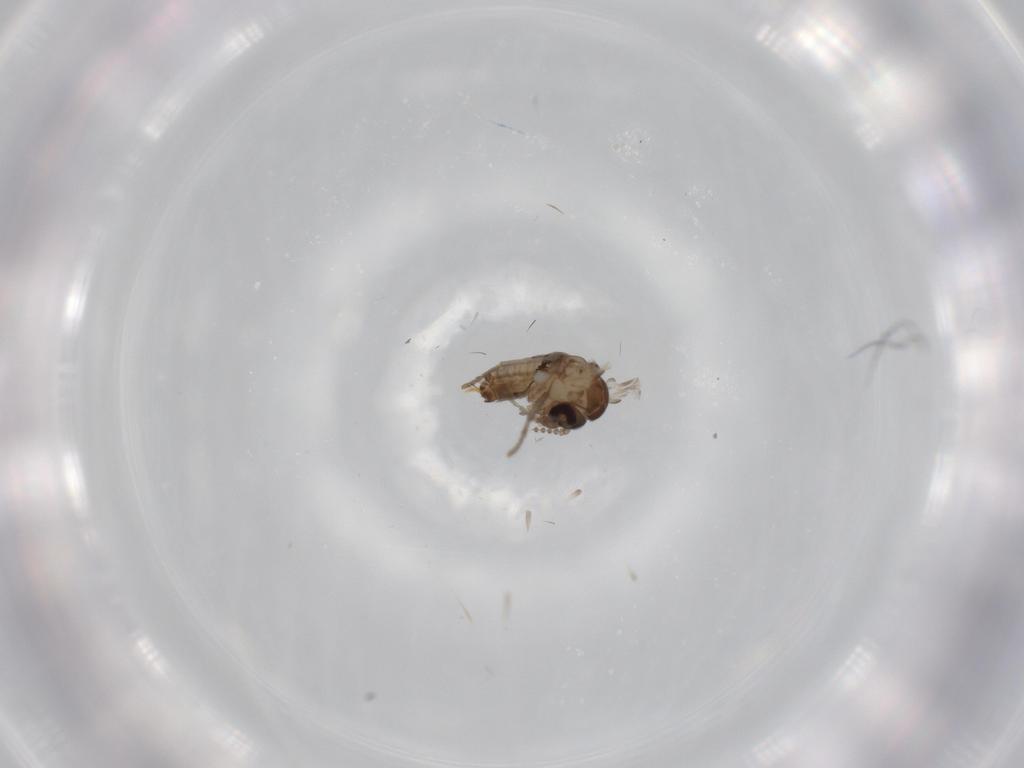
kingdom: Animalia
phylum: Arthropoda
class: Insecta
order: Diptera
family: Psychodidae
